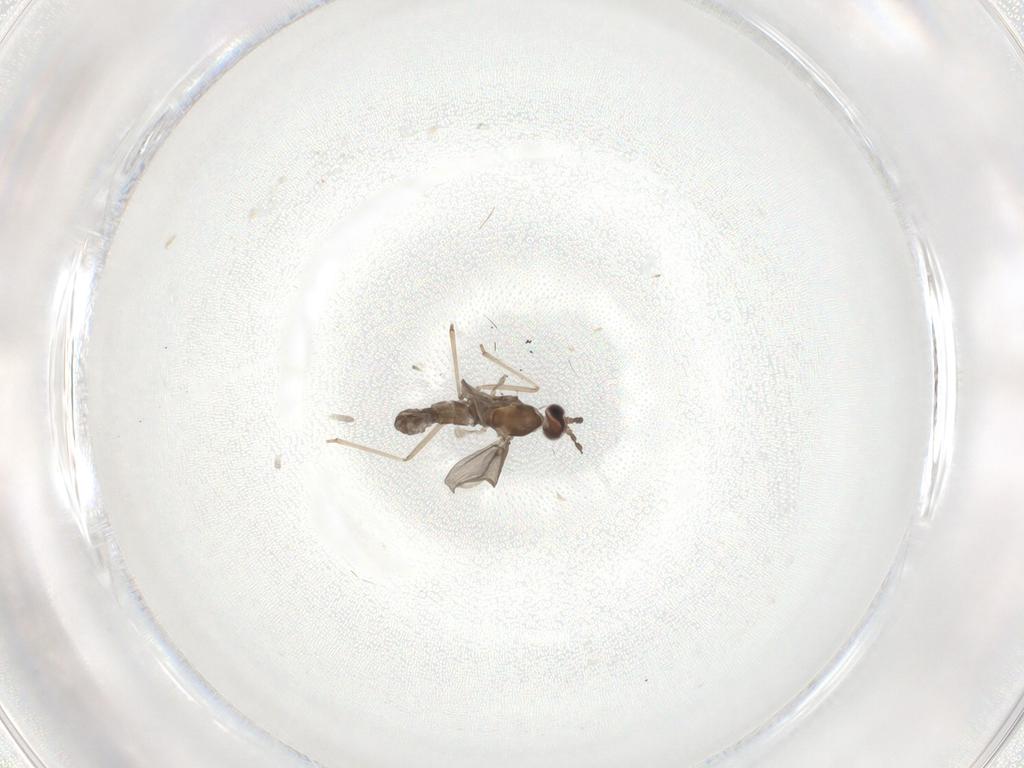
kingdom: Animalia
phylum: Arthropoda
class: Insecta
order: Diptera
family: Cecidomyiidae
